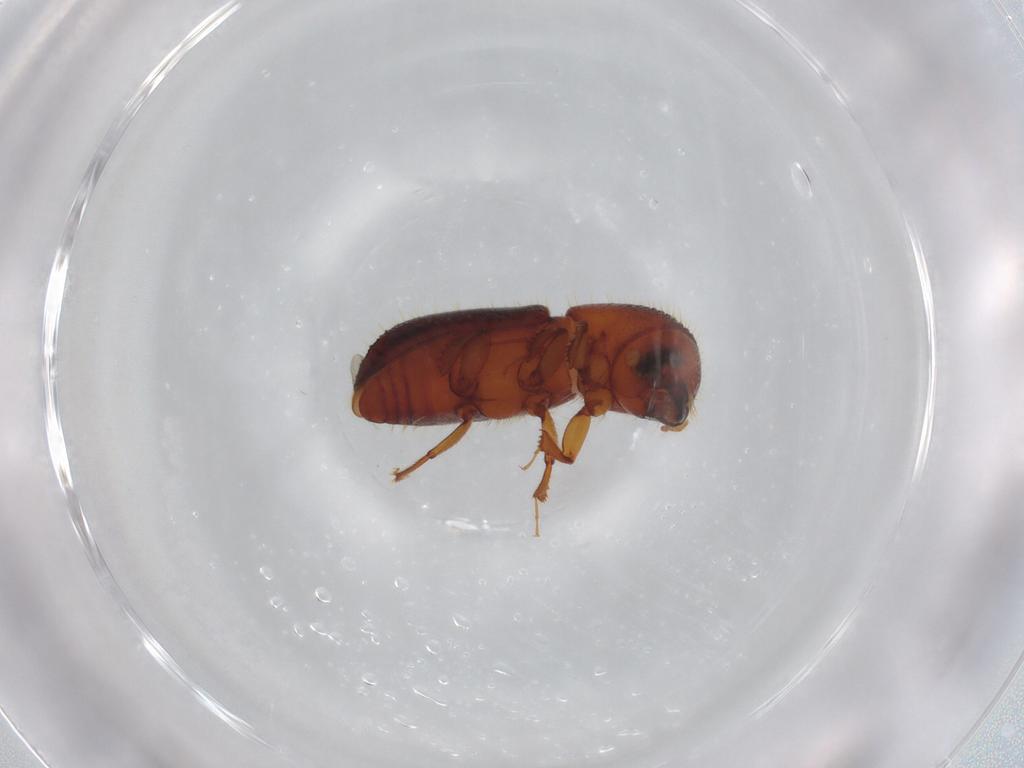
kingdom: Animalia
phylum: Arthropoda
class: Insecta
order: Coleoptera
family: Curculionidae
